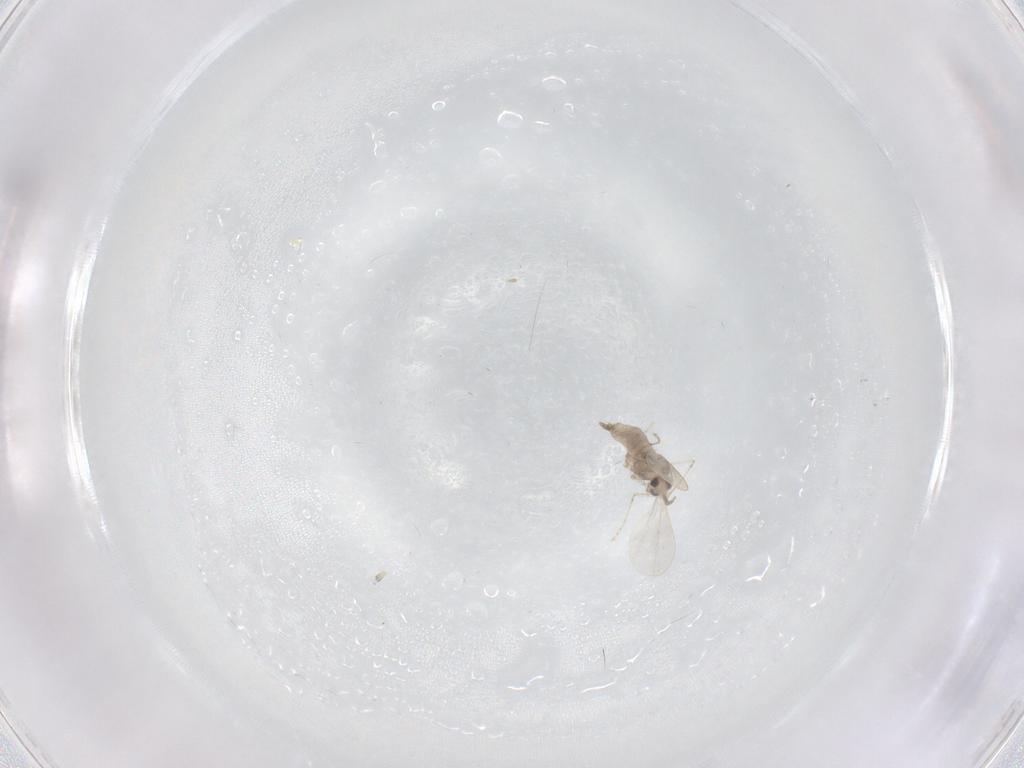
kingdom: Animalia
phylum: Arthropoda
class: Insecta
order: Diptera
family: Cecidomyiidae
